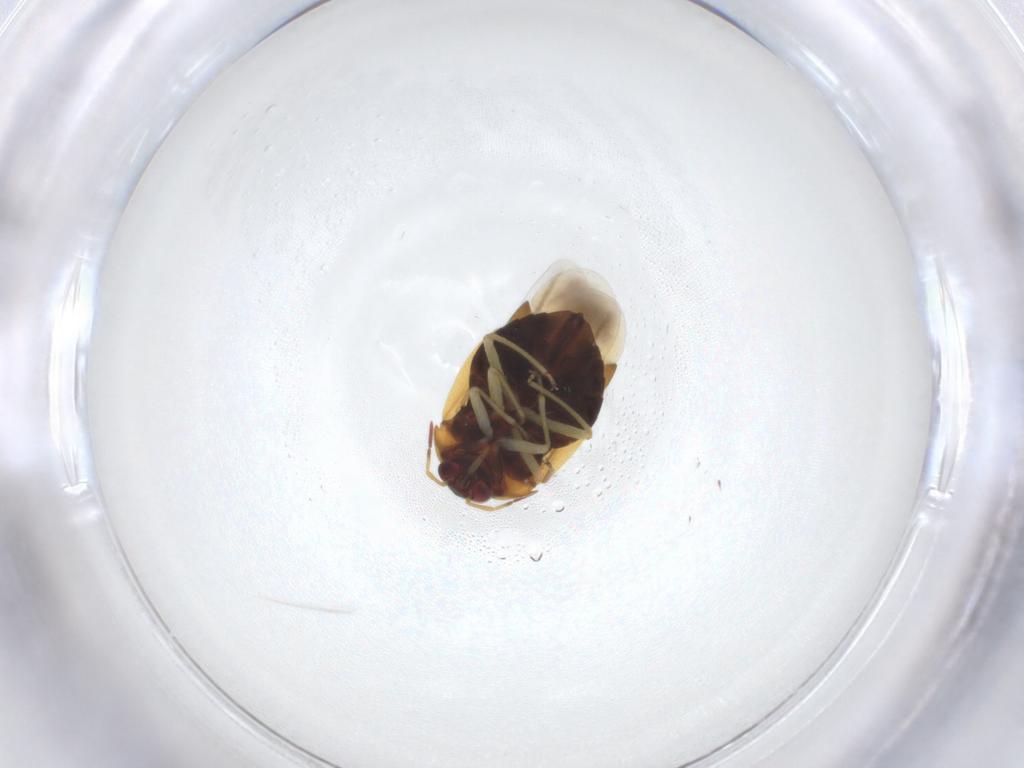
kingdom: Animalia
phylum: Arthropoda
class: Insecta
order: Hemiptera
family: Anthocoridae
